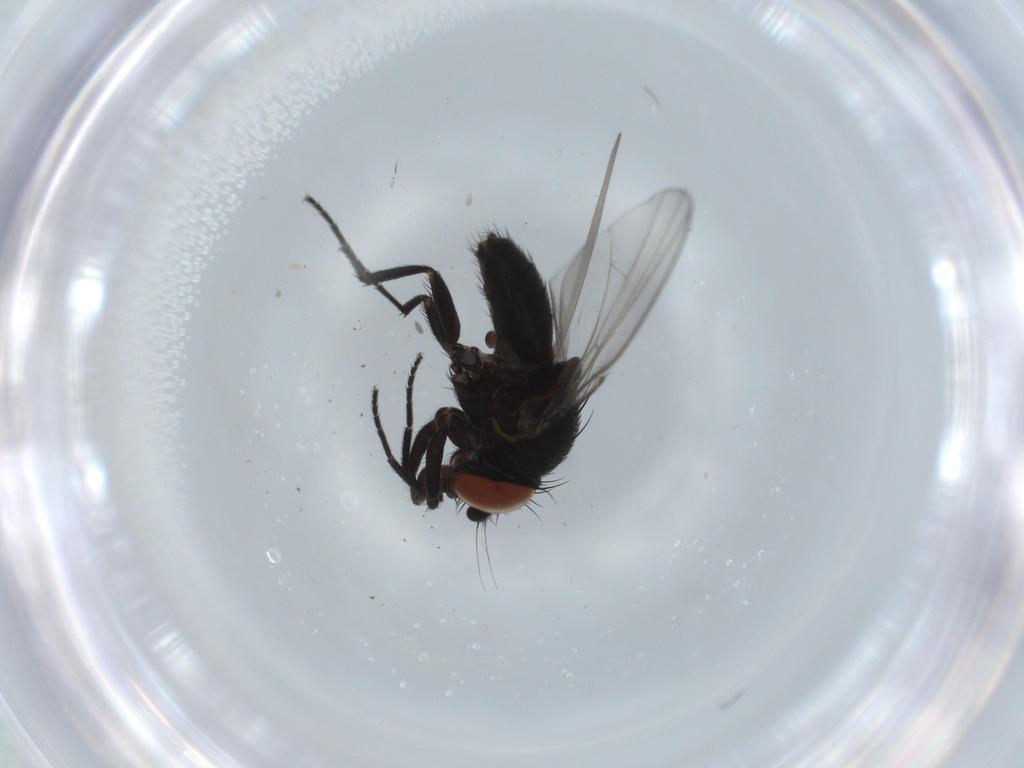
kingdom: Animalia
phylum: Arthropoda
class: Insecta
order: Diptera
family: Milichiidae
